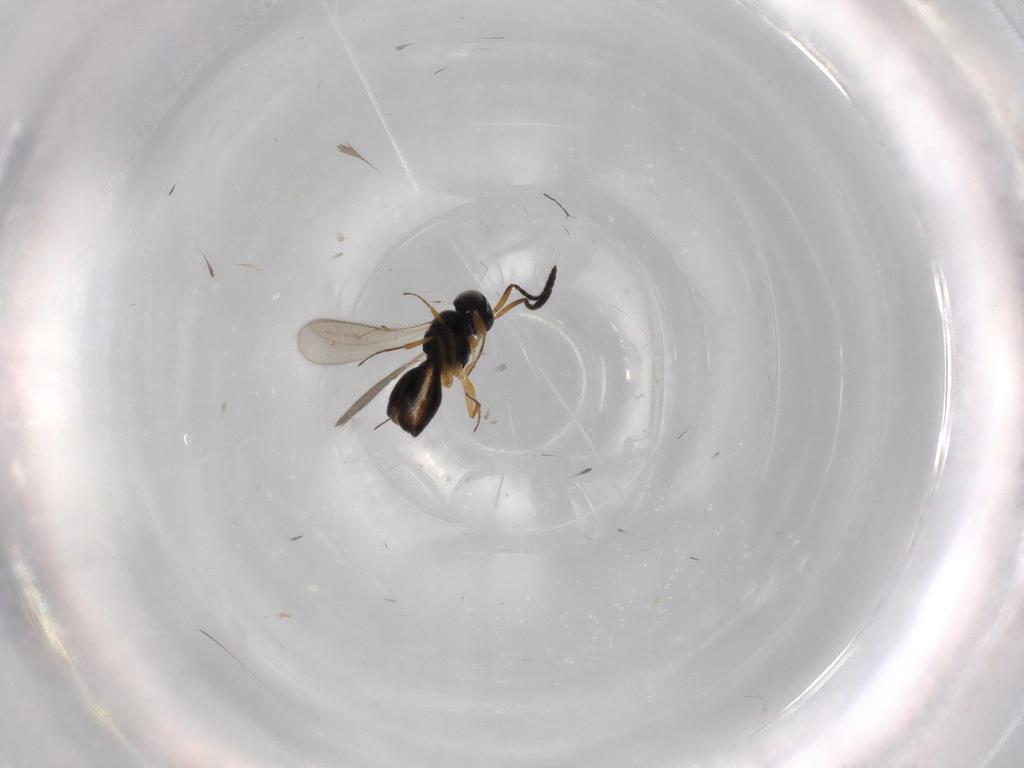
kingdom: Animalia
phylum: Arthropoda
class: Insecta
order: Hymenoptera
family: Scelionidae
